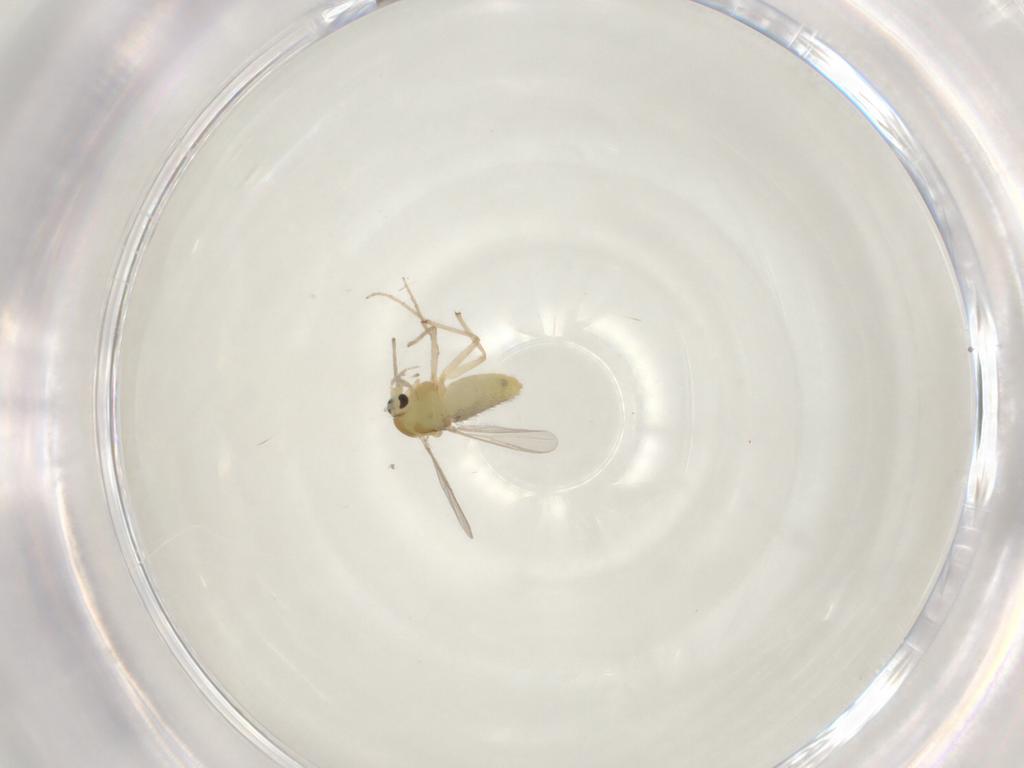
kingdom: Animalia
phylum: Arthropoda
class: Insecta
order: Diptera
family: Chironomidae
